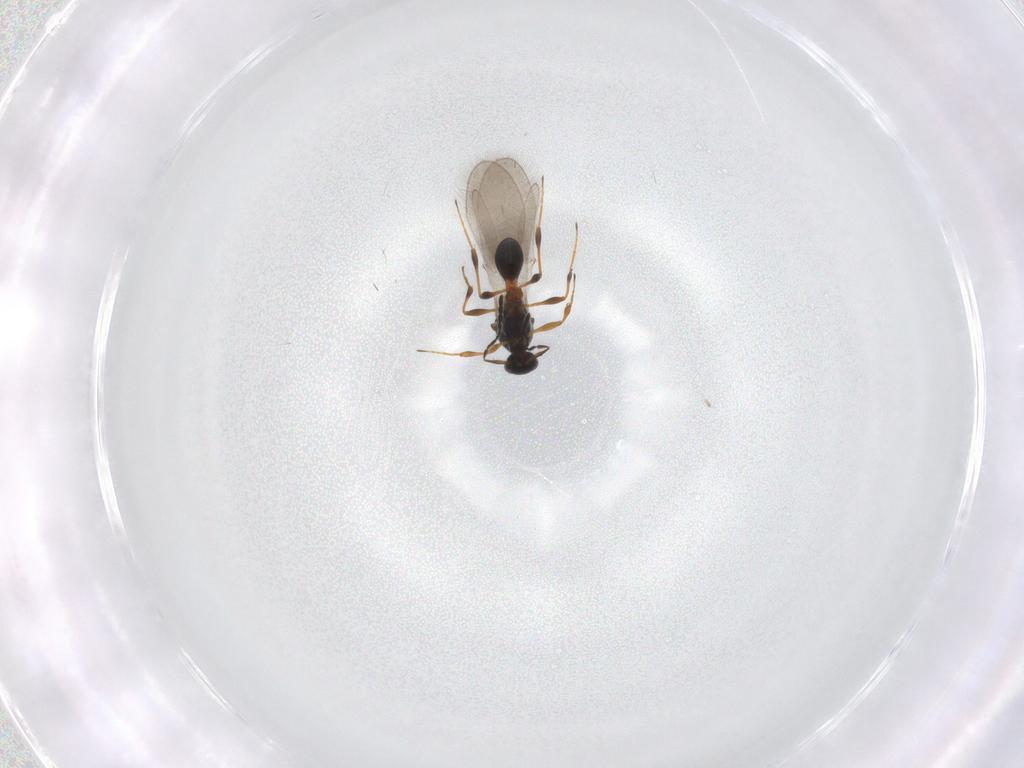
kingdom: Animalia
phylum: Arthropoda
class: Insecta
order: Hymenoptera
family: Platygastridae
